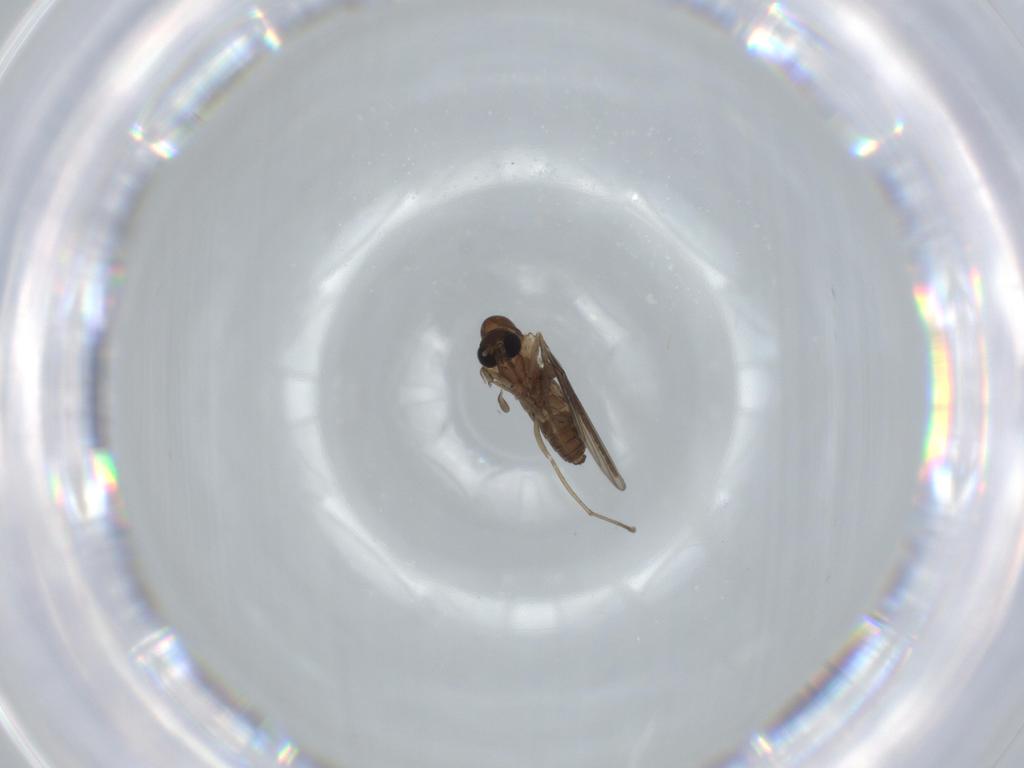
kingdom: Animalia
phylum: Arthropoda
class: Insecta
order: Diptera
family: Psychodidae
